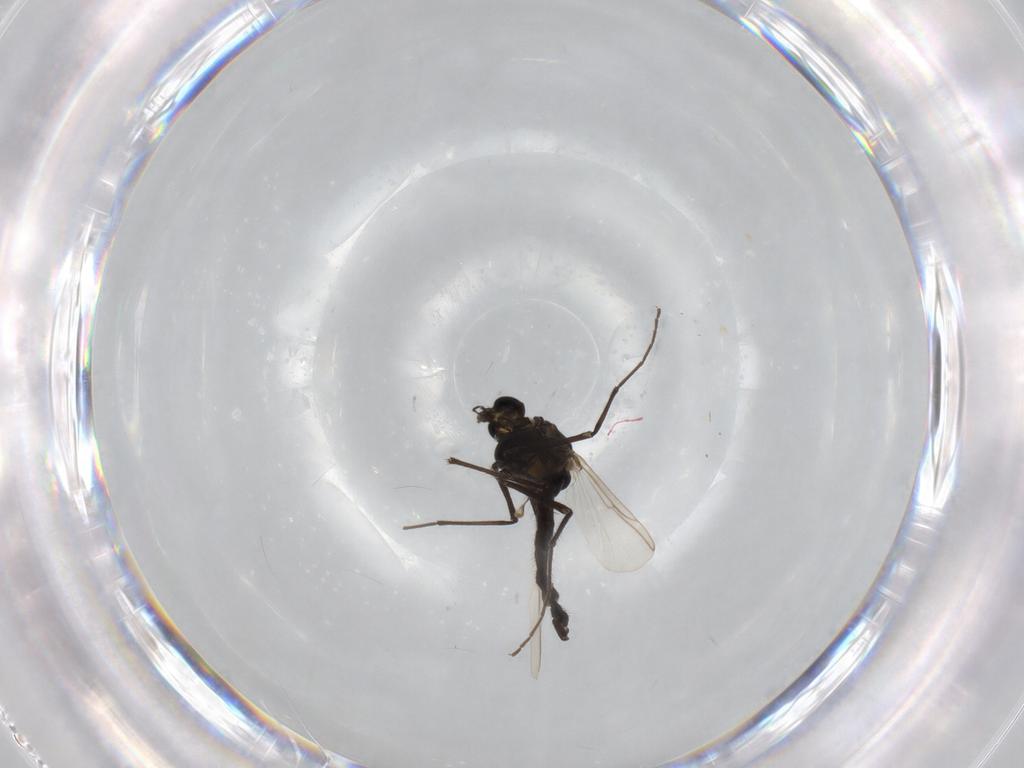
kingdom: Animalia
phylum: Arthropoda
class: Insecta
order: Diptera
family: Chironomidae
